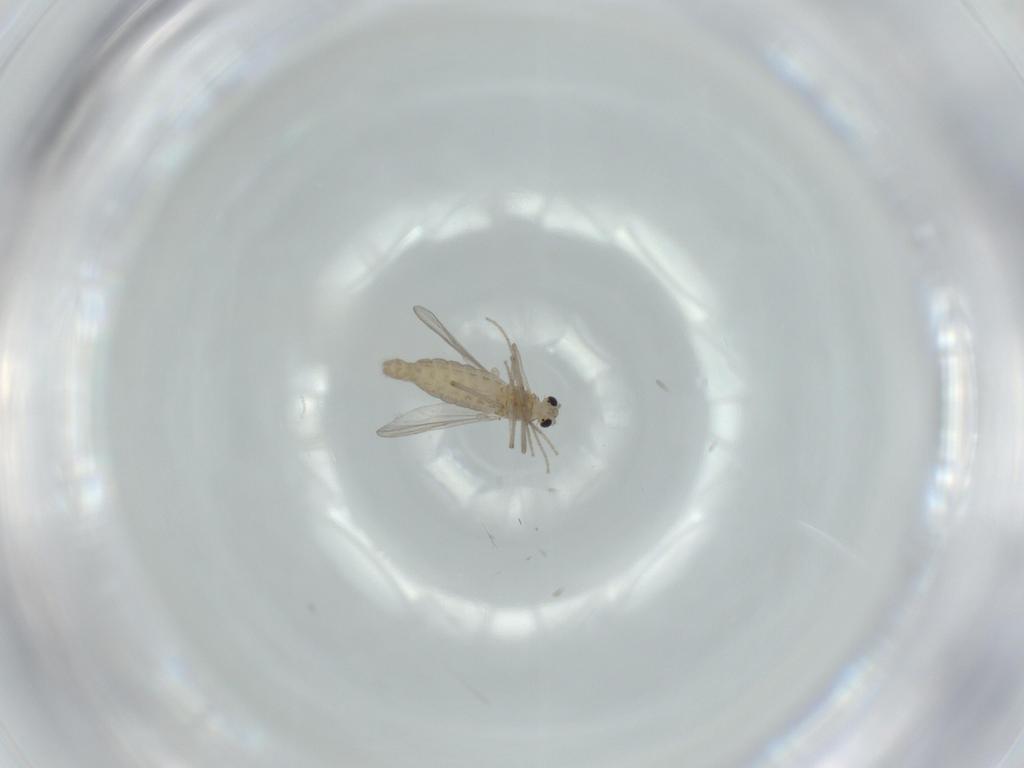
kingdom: Animalia
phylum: Arthropoda
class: Insecta
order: Diptera
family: Chironomidae
